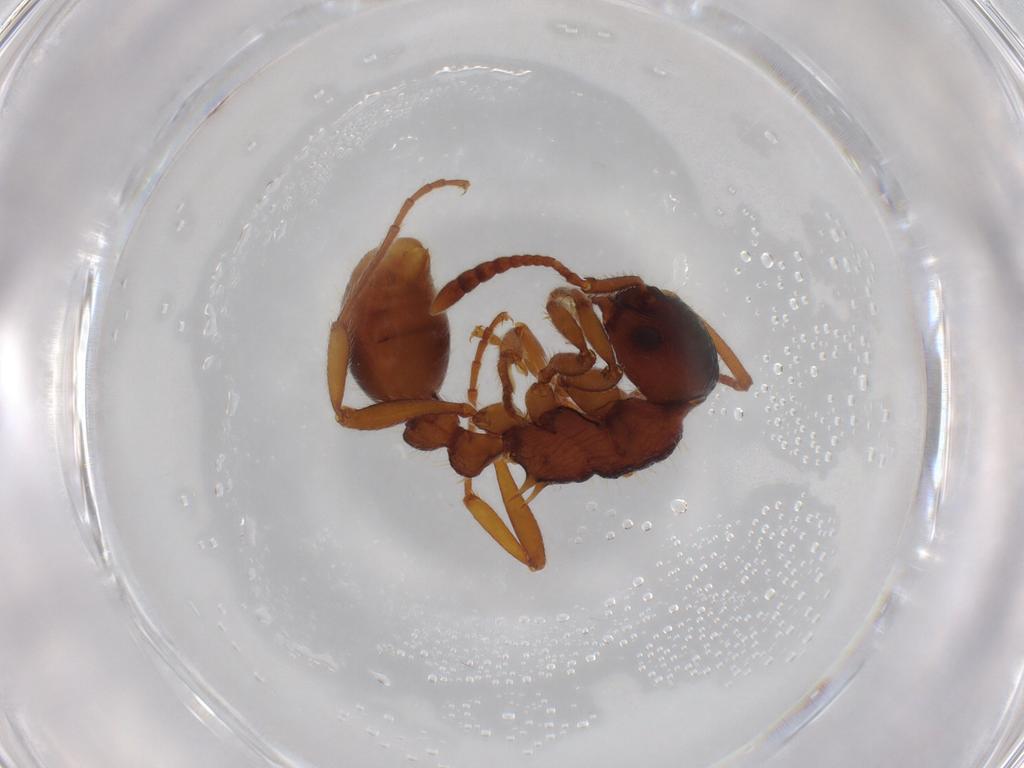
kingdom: Animalia
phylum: Arthropoda
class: Insecta
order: Hymenoptera
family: Formicidae
